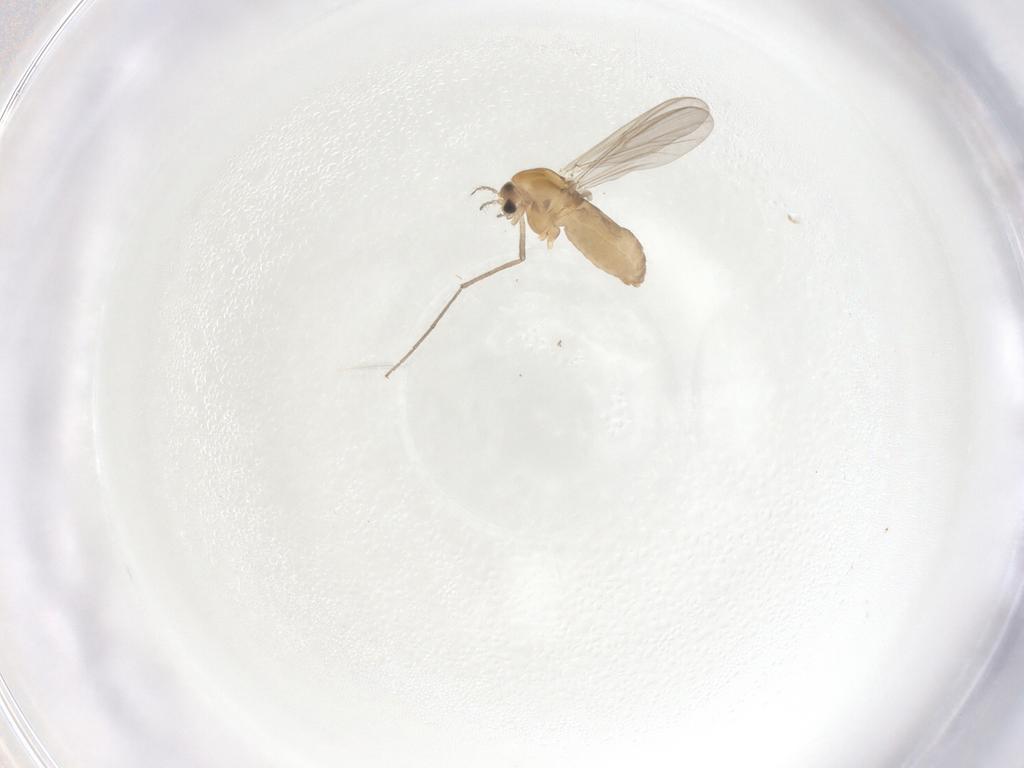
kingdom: Animalia
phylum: Arthropoda
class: Insecta
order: Diptera
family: Chironomidae
